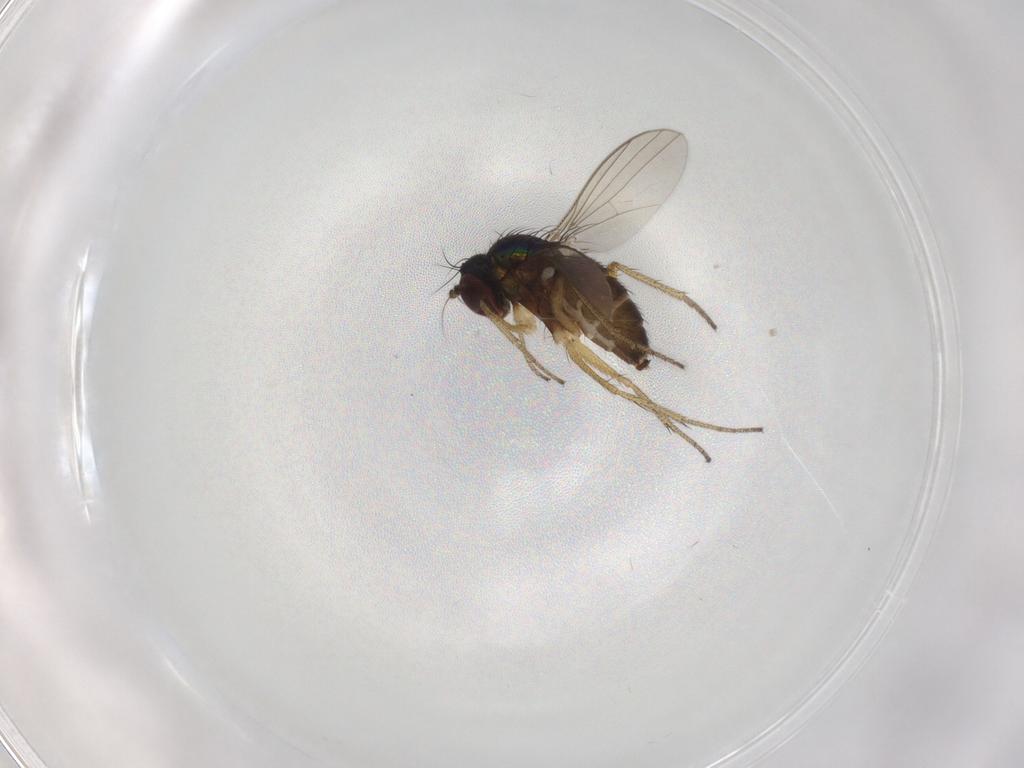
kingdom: Animalia
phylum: Arthropoda
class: Insecta
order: Diptera
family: Dolichopodidae
